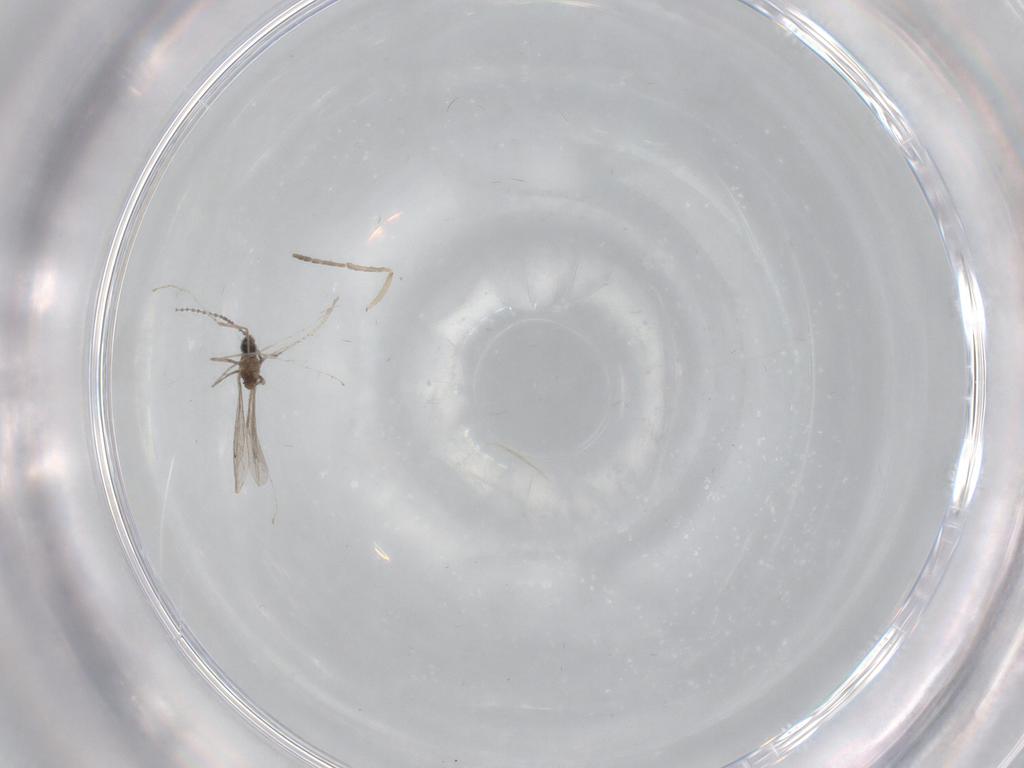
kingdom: Animalia
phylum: Arthropoda
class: Insecta
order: Diptera
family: Cecidomyiidae
